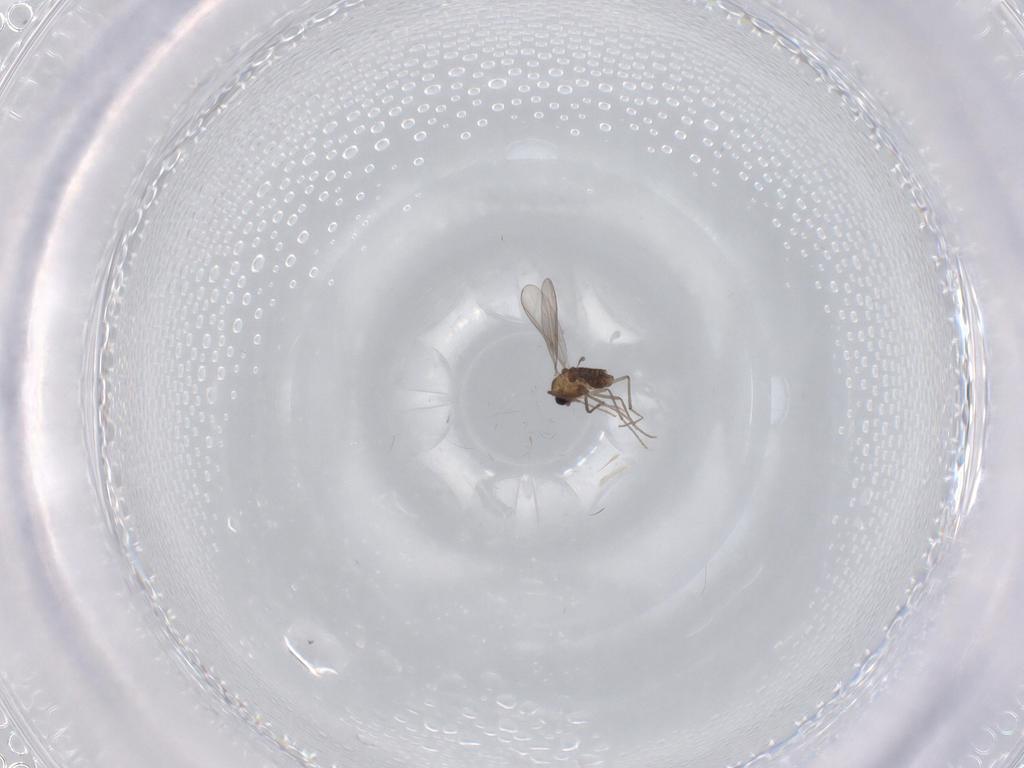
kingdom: Animalia
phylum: Arthropoda
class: Insecta
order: Diptera
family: Chironomidae
